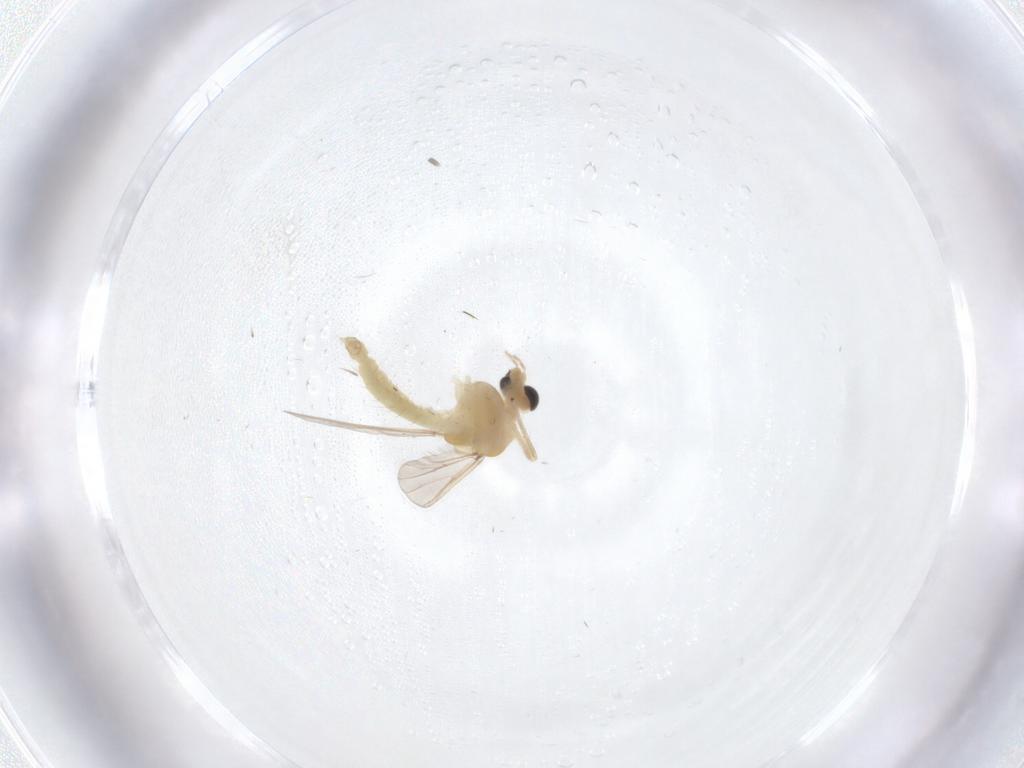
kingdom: Animalia
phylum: Arthropoda
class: Insecta
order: Diptera
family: Chironomidae
